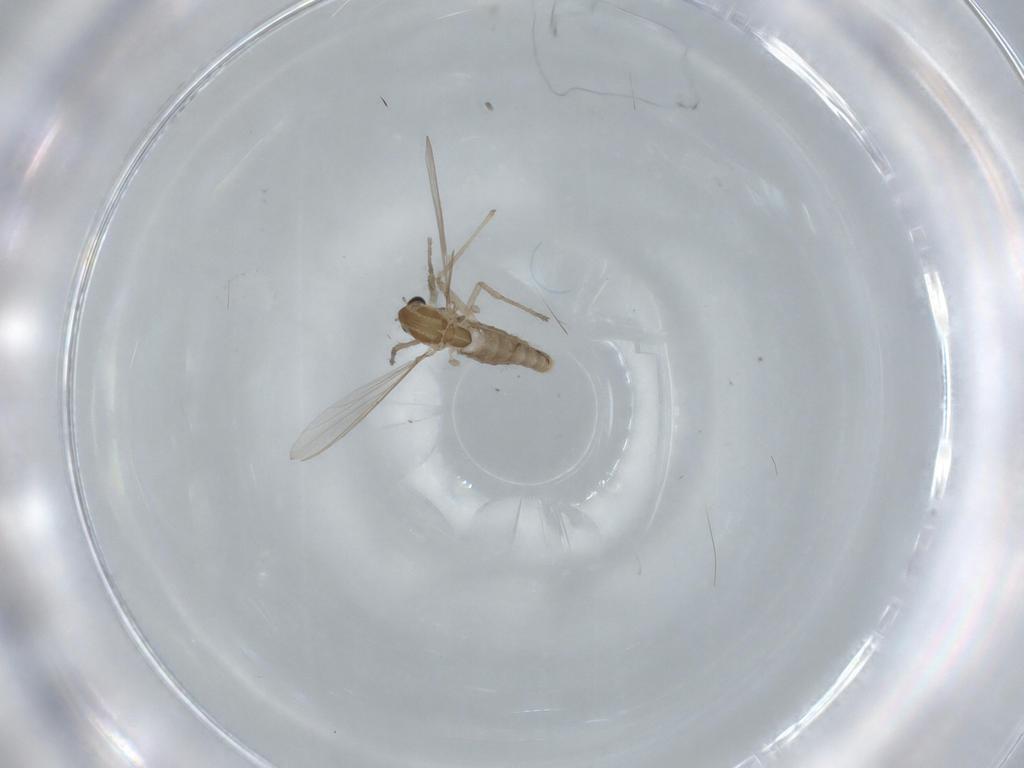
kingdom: Animalia
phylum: Arthropoda
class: Insecta
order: Diptera
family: Chironomidae
